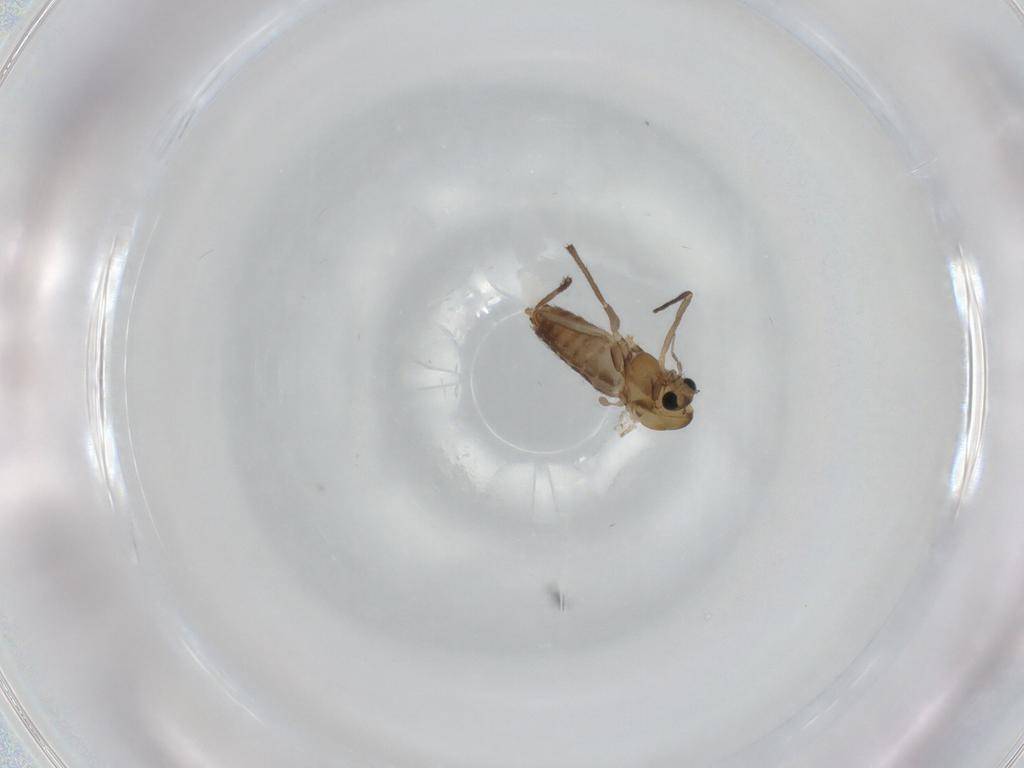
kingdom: Animalia
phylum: Arthropoda
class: Insecta
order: Diptera
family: Chironomidae
